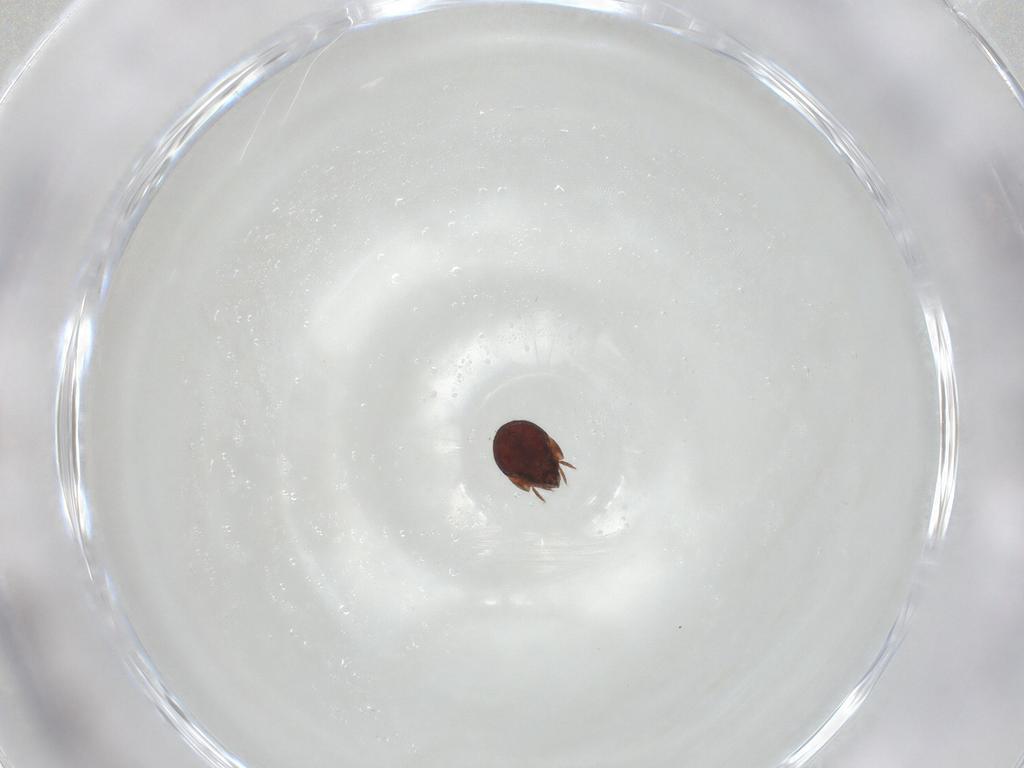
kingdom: Animalia
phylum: Arthropoda
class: Arachnida
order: Sarcoptiformes
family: Humerobatidae
